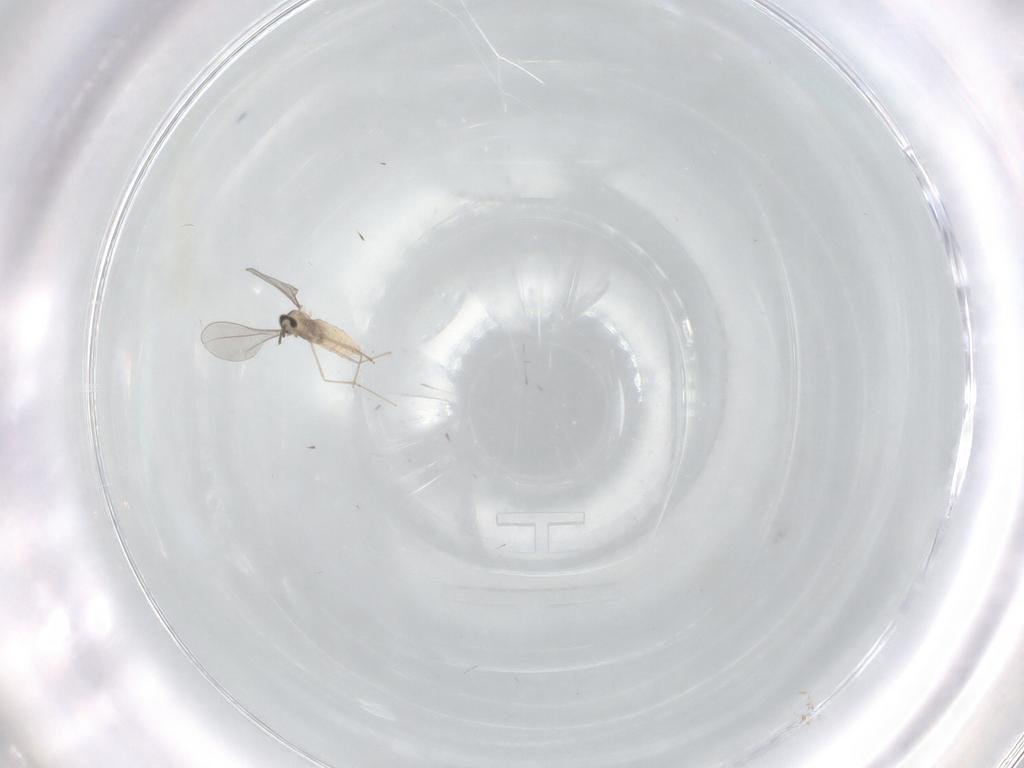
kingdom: Animalia
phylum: Arthropoda
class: Insecta
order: Diptera
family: Cecidomyiidae
